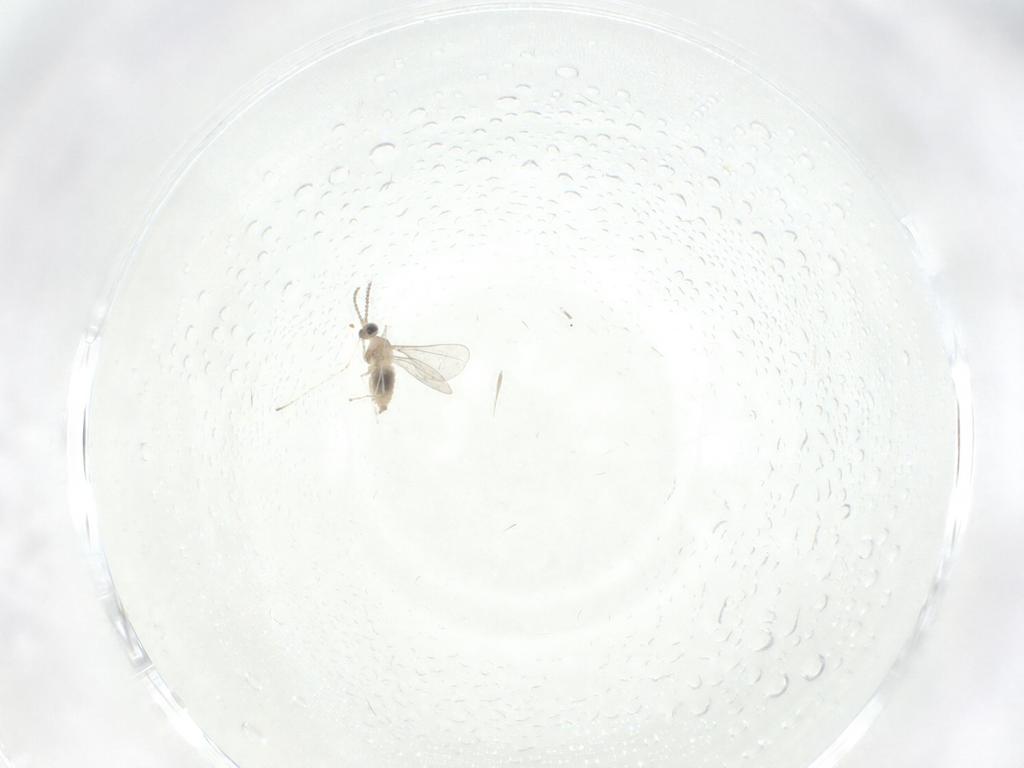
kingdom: Animalia
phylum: Arthropoda
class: Insecta
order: Diptera
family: Cecidomyiidae
